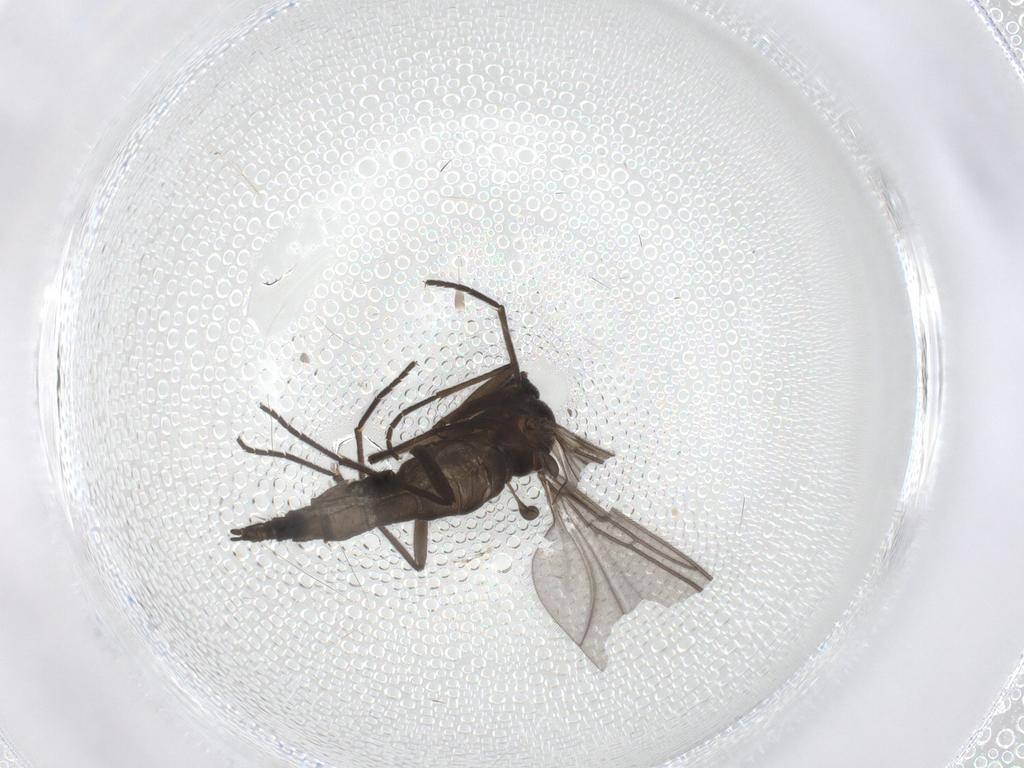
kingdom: Animalia
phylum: Arthropoda
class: Insecta
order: Diptera
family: Sciaridae
